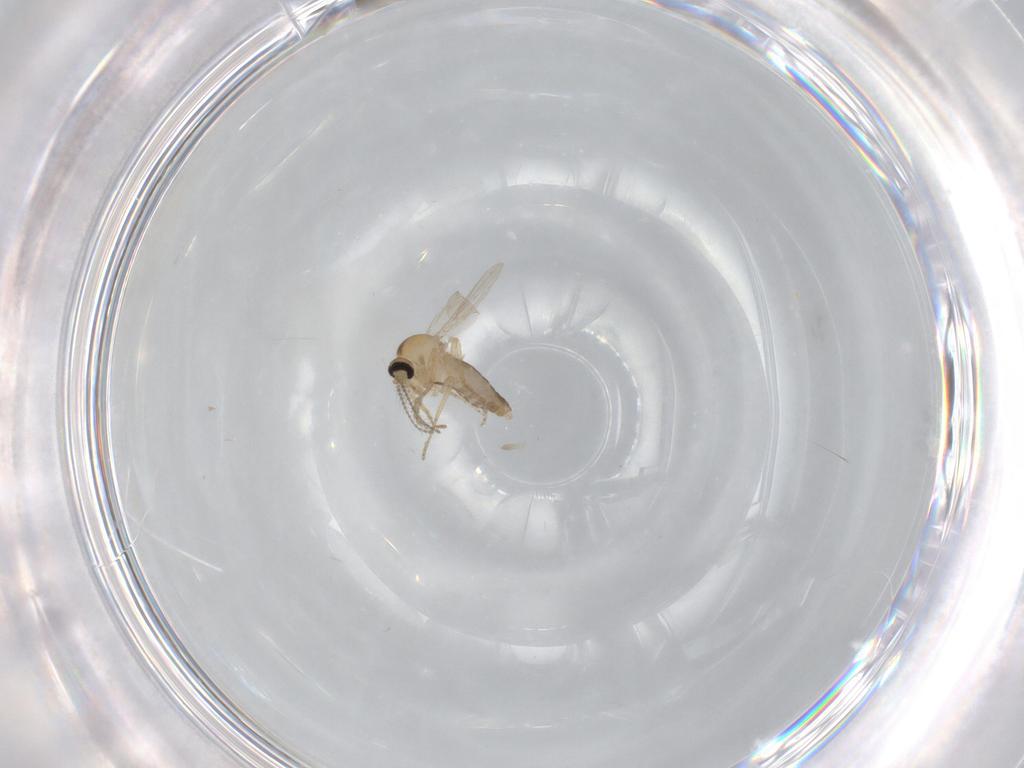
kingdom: Animalia
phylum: Arthropoda
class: Insecta
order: Diptera
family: Ceratopogonidae
